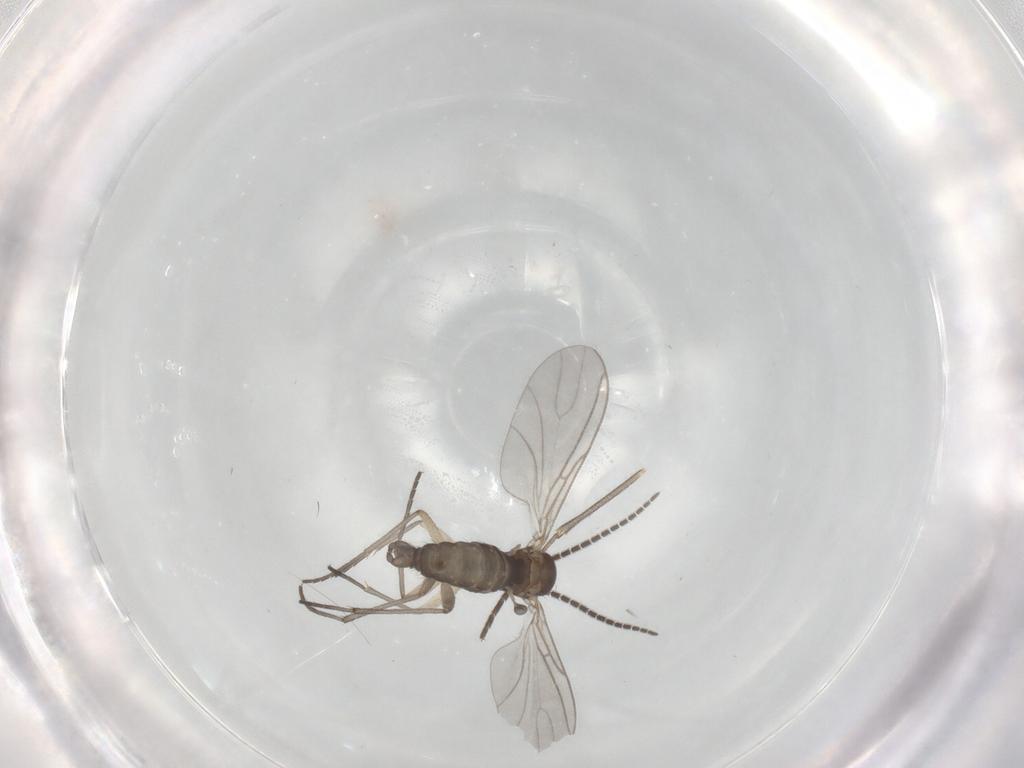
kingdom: Animalia
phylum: Arthropoda
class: Insecta
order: Diptera
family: Sciaridae
